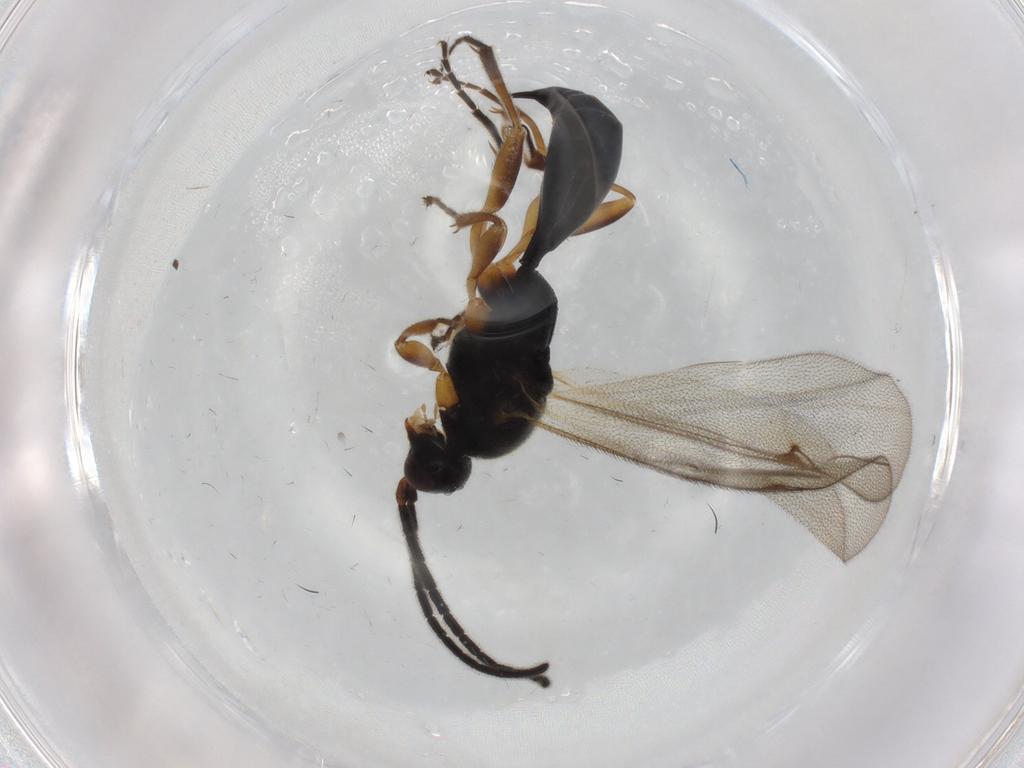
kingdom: Animalia
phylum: Arthropoda
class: Insecta
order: Hymenoptera
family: Proctotrupidae
